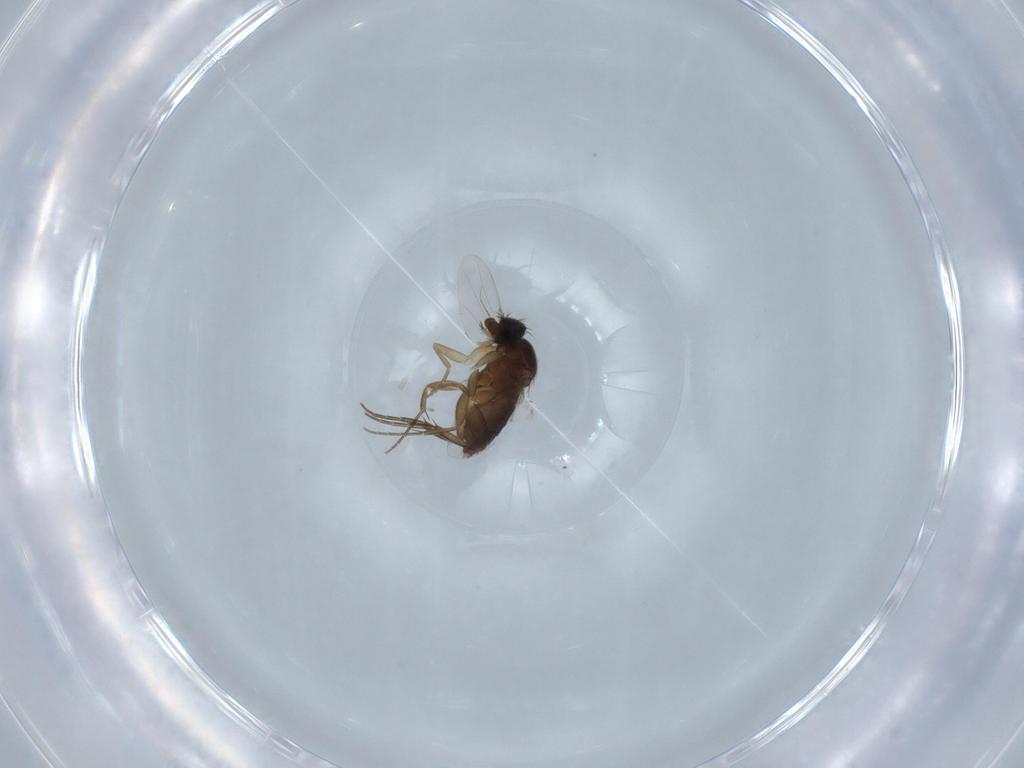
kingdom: Animalia
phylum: Arthropoda
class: Insecta
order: Diptera
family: Phoridae
